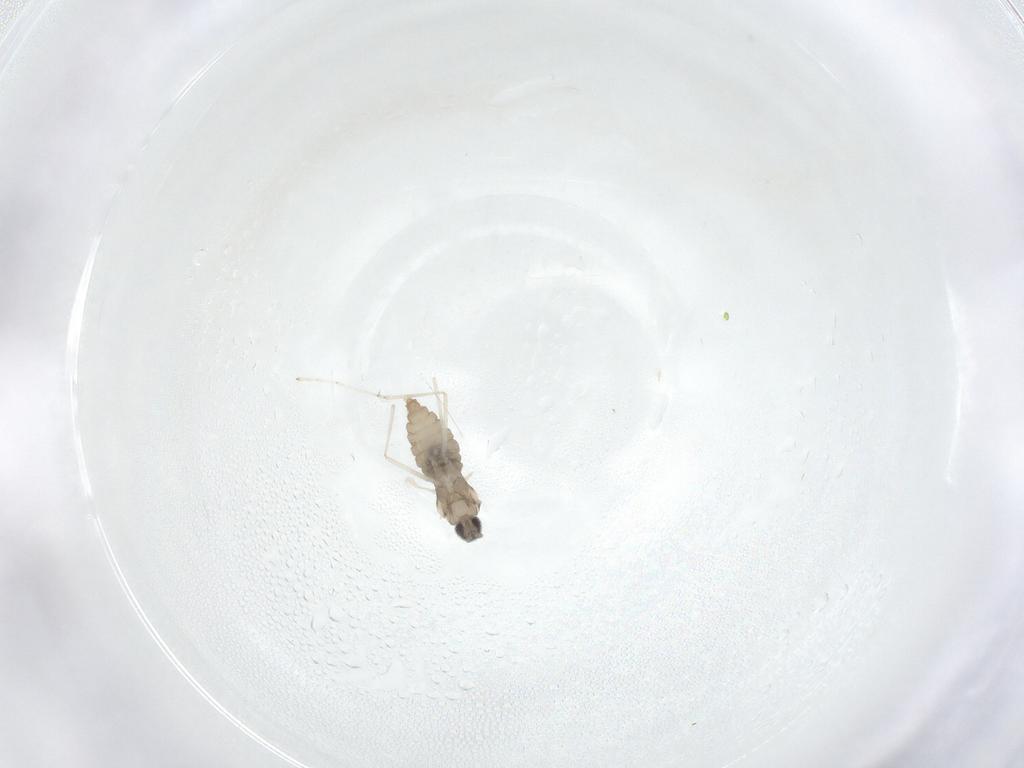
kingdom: Animalia
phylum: Arthropoda
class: Insecta
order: Diptera
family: Cecidomyiidae
